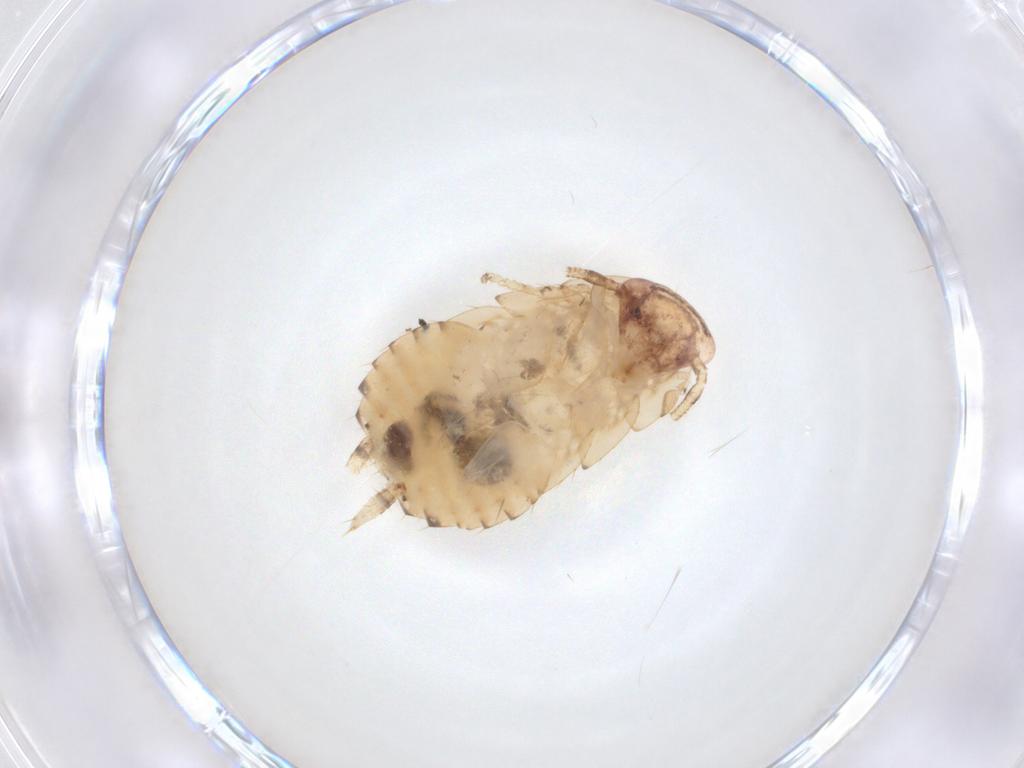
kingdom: Animalia
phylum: Arthropoda
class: Insecta
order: Blattodea
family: Ectobiidae
